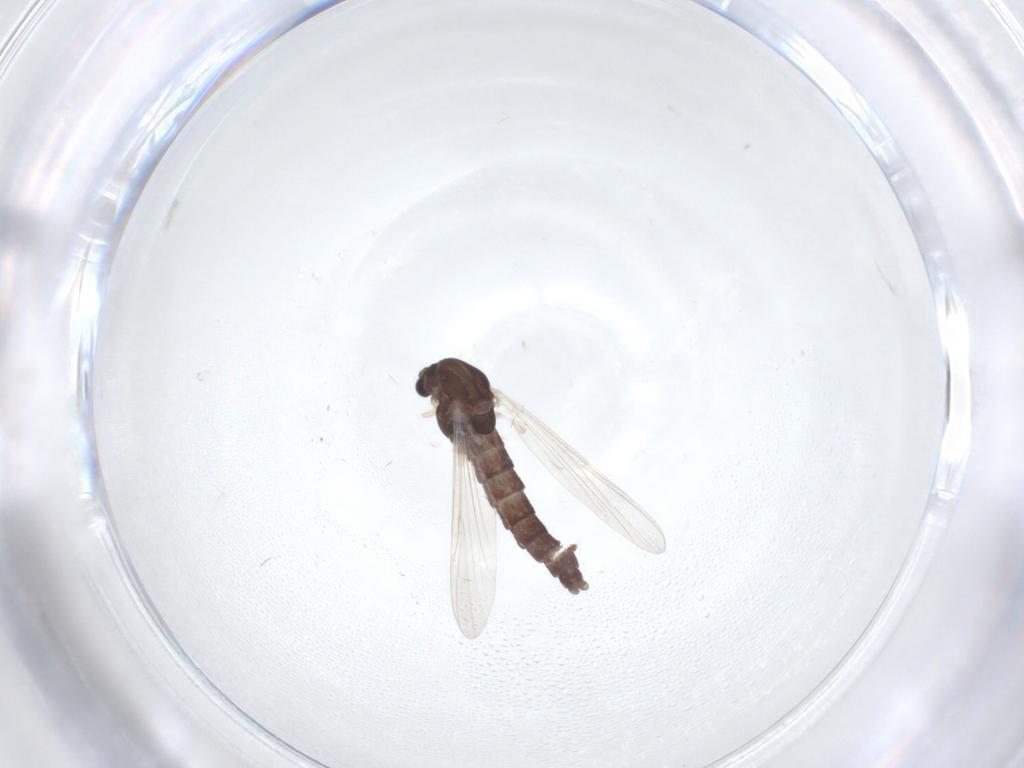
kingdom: Animalia
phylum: Arthropoda
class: Insecta
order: Diptera
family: Chironomidae
